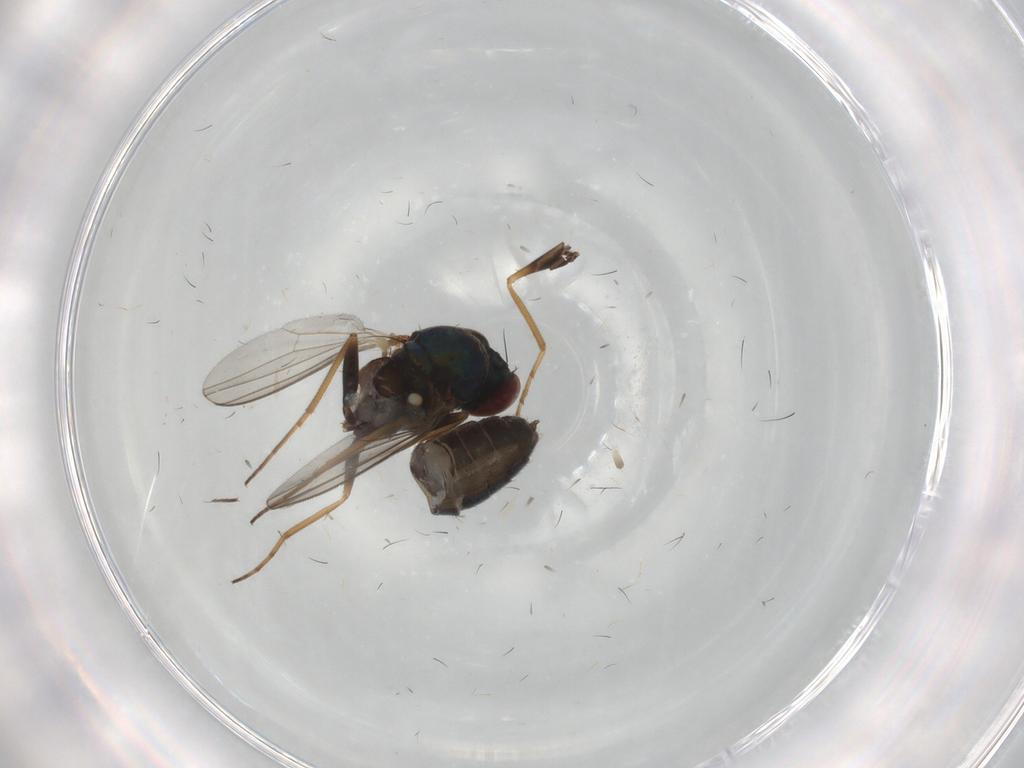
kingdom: Animalia
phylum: Arthropoda
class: Insecta
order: Diptera
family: Dolichopodidae
